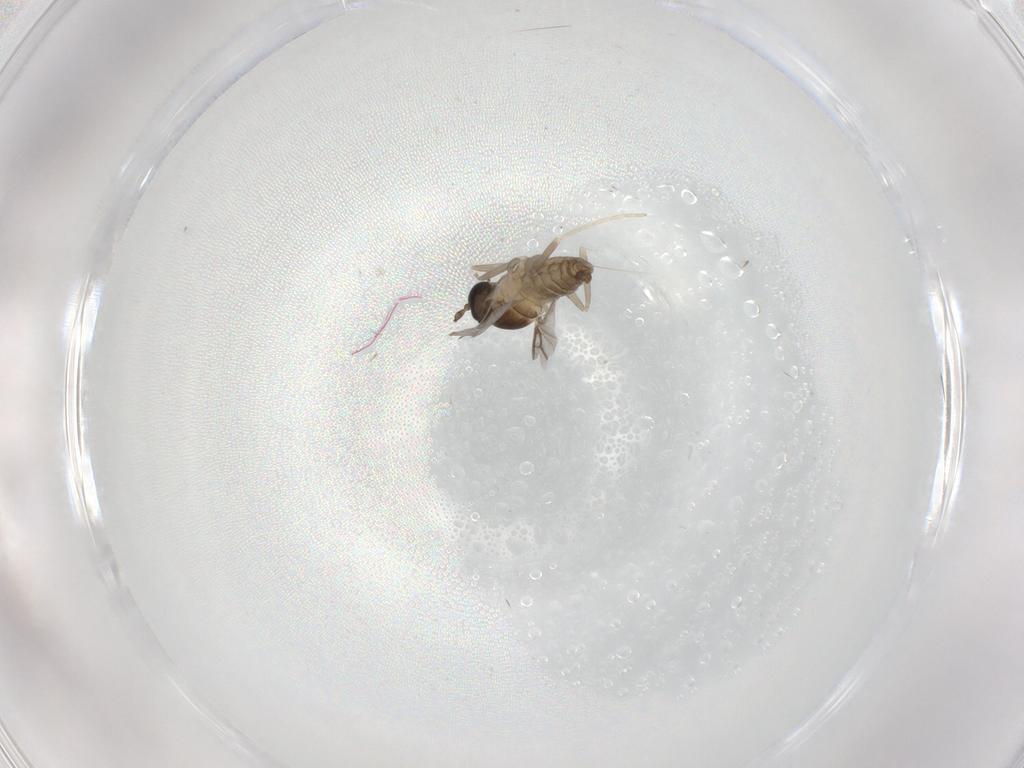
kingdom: Animalia
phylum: Arthropoda
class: Insecta
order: Diptera
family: Cecidomyiidae
